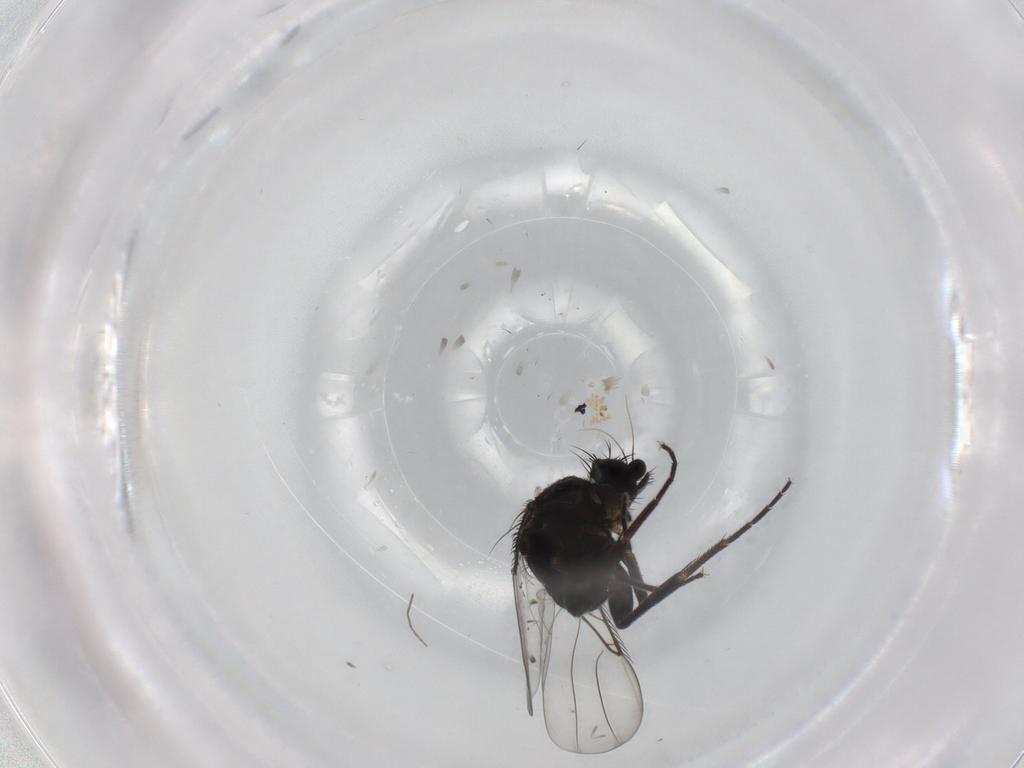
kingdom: Animalia
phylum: Arthropoda
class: Insecta
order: Diptera
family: Phoridae
